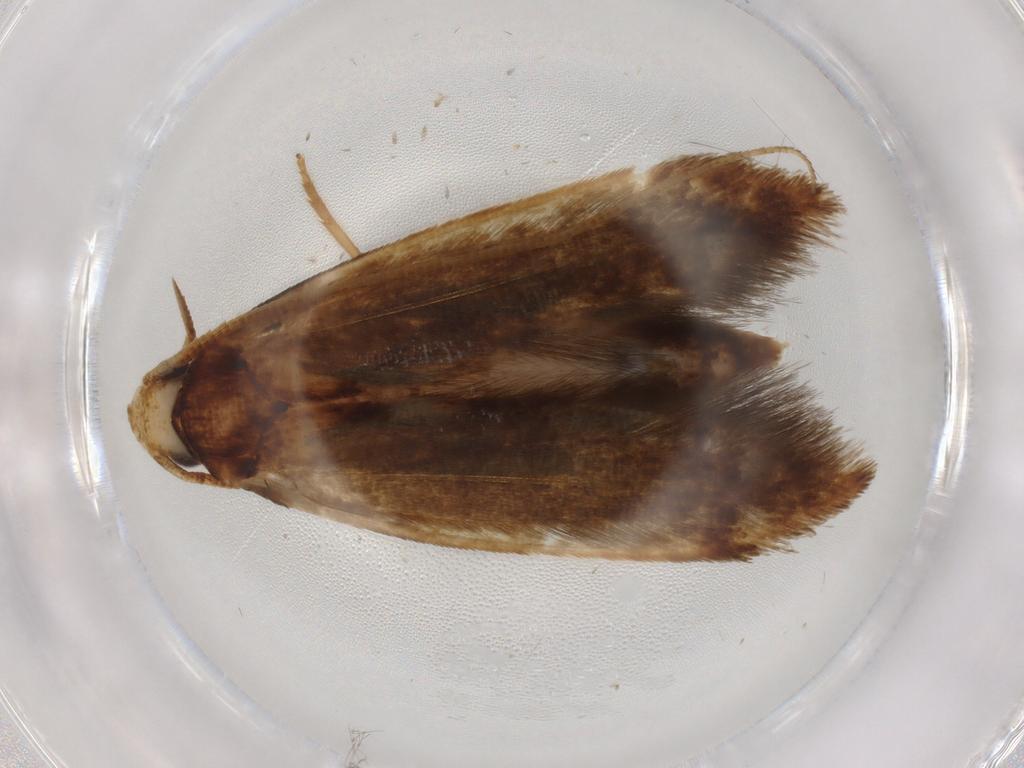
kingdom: Animalia
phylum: Arthropoda
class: Insecta
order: Lepidoptera
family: Tineidae
